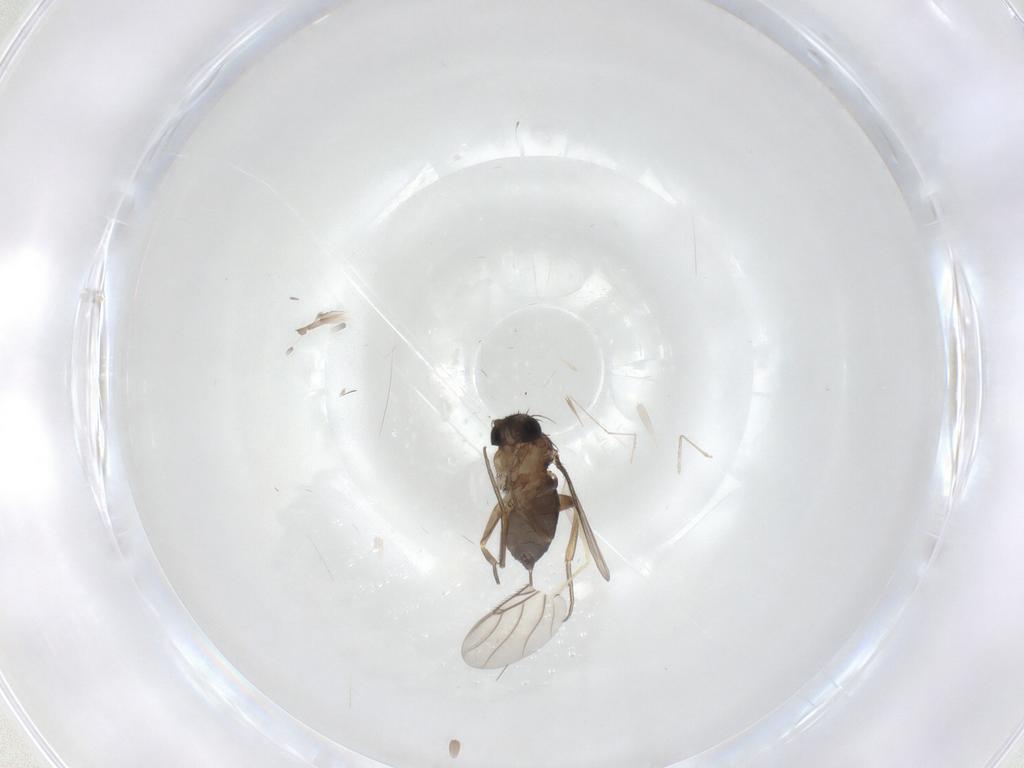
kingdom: Animalia
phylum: Arthropoda
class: Insecta
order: Diptera
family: Chironomidae
